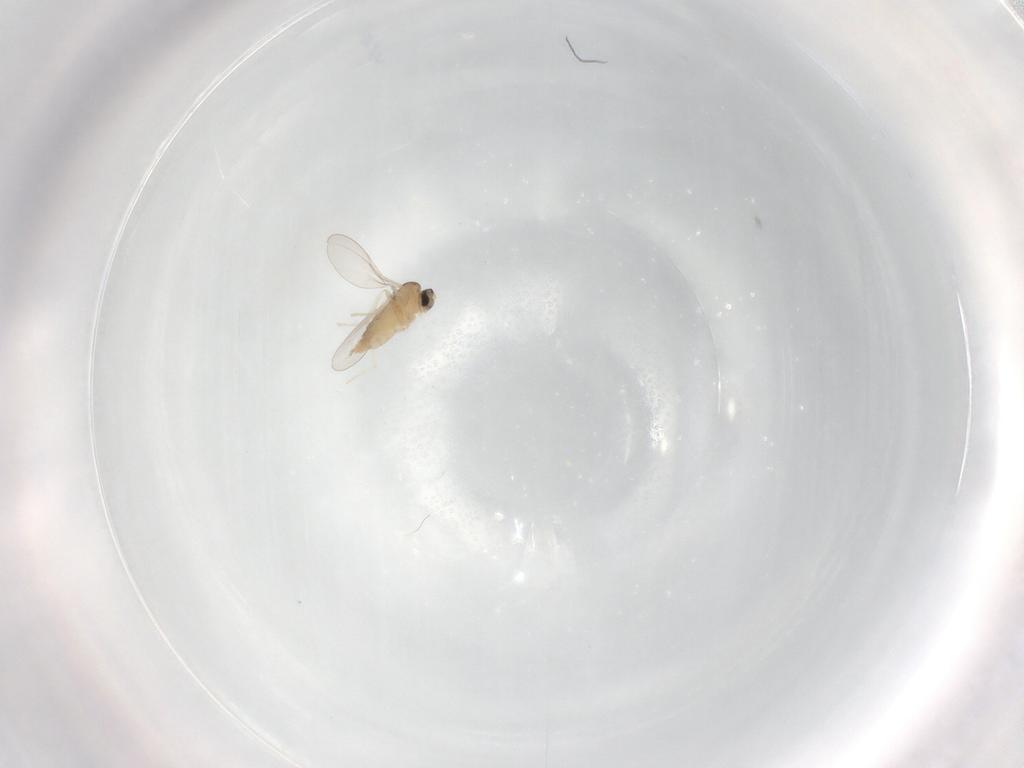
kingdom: Animalia
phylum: Arthropoda
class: Insecta
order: Diptera
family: Cecidomyiidae
